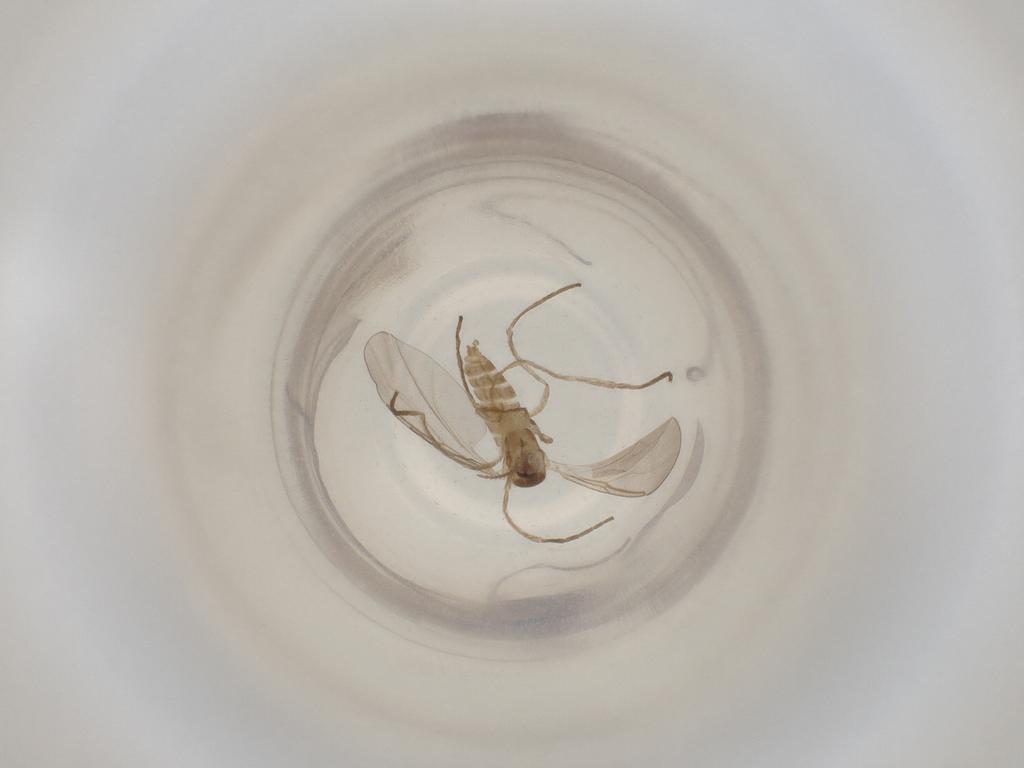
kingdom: Animalia
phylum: Arthropoda
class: Insecta
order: Diptera
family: Cecidomyiidae
